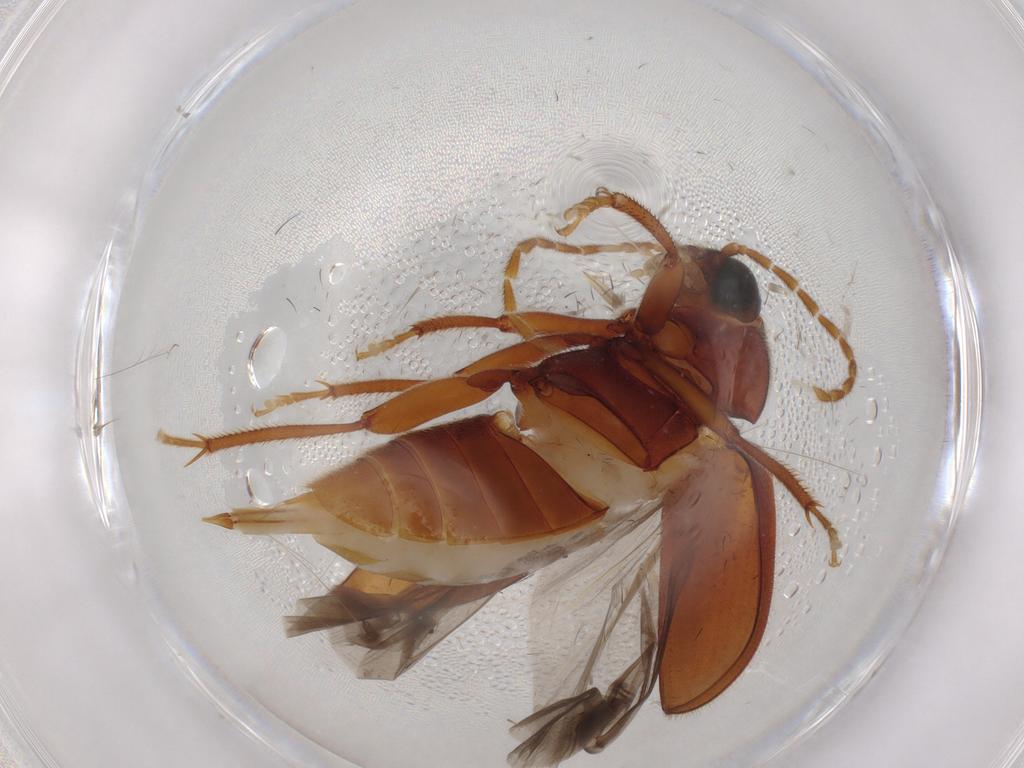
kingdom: Animalia
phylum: Arthropoda
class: Insecta
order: Coleoptera
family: Ptilodactylidae
